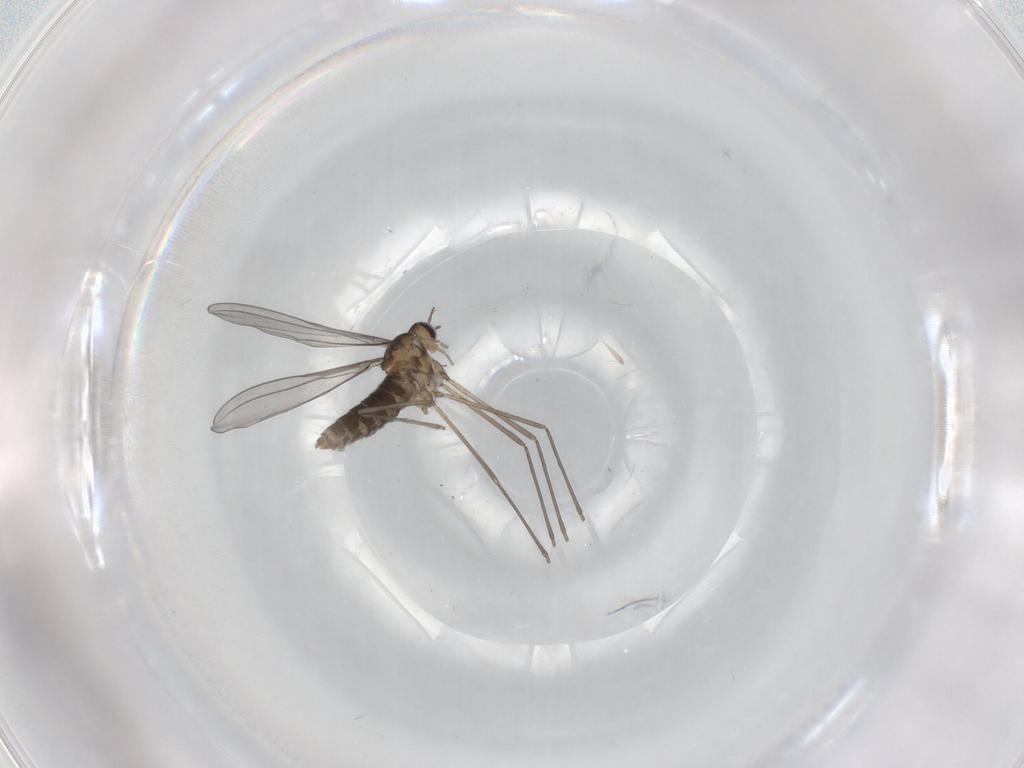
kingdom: Animalia
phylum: Arthropoda
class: Insecta
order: Diptera
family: Cecidomyiidae
